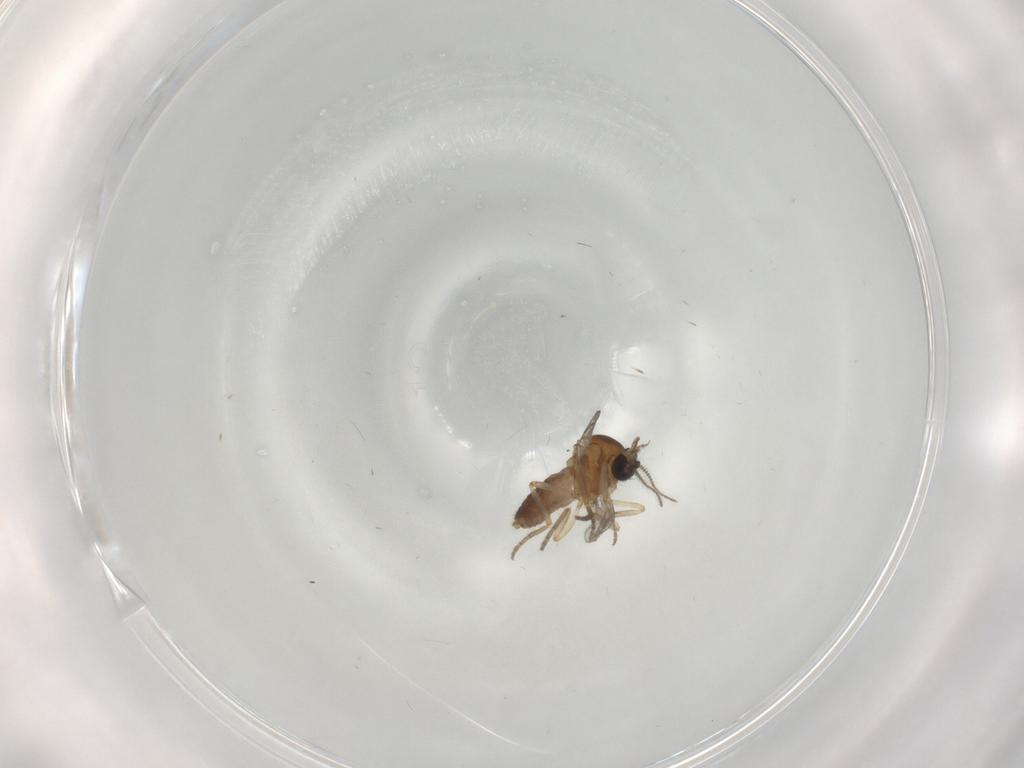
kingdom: Animalia
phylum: Arthropoda
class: Insecta
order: Diptera
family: Ceratopogonidae
